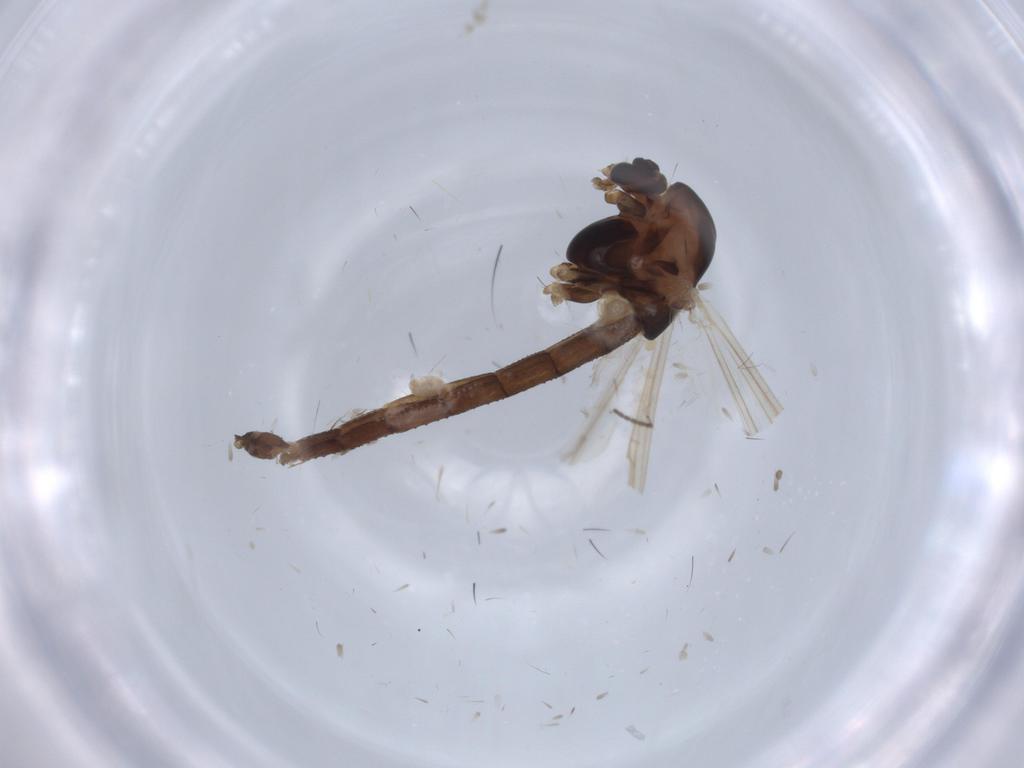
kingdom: Animalia
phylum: Arthropoda
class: Insecta
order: Diptera
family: Chironomidae
